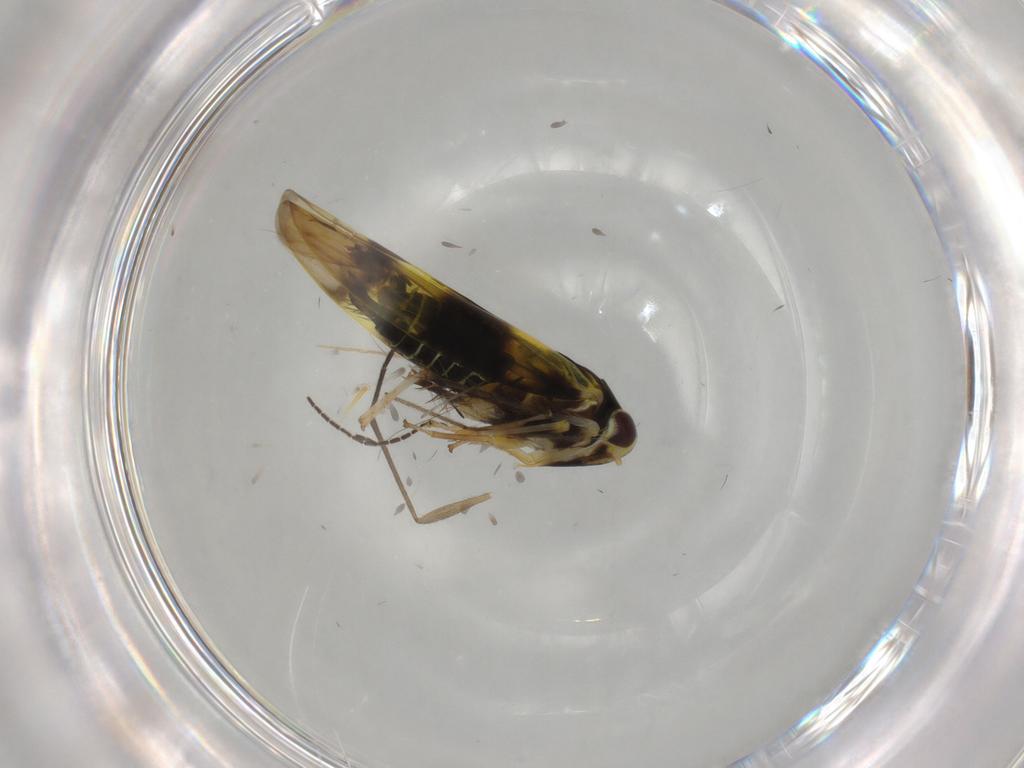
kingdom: Animalia
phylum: Arthropoda
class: Insecta
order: Hemiptera
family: Cicadellidae
